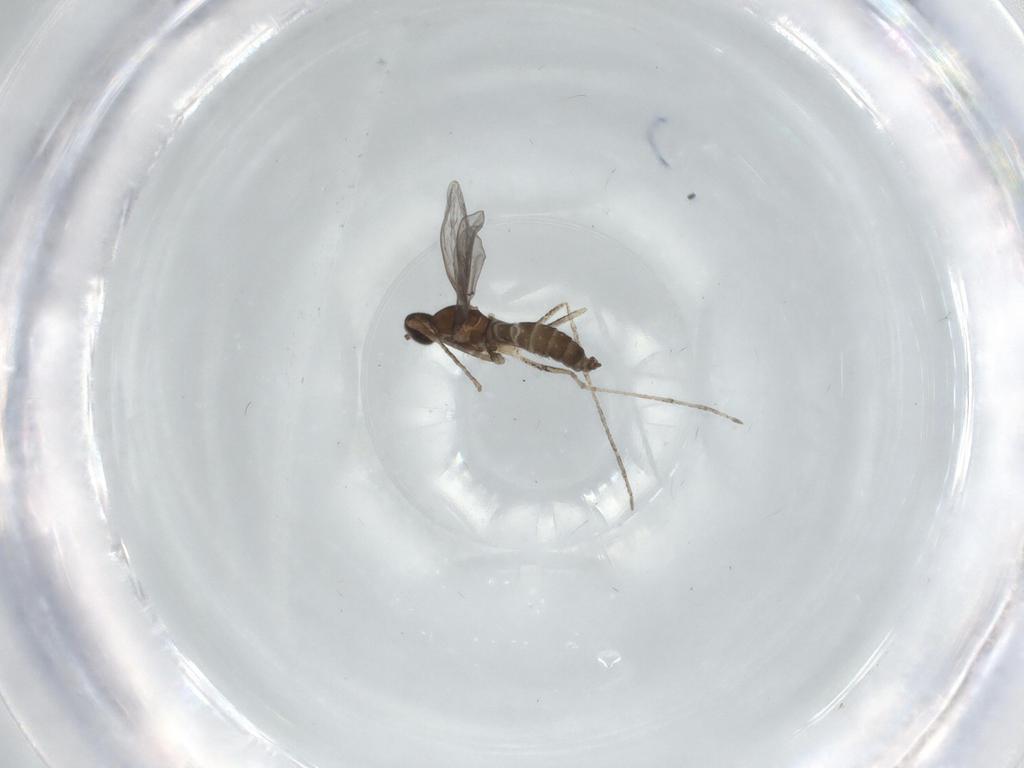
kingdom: Animalia
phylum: Arthropoda
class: Insecta
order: Diptera
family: Cecidomyiidae
